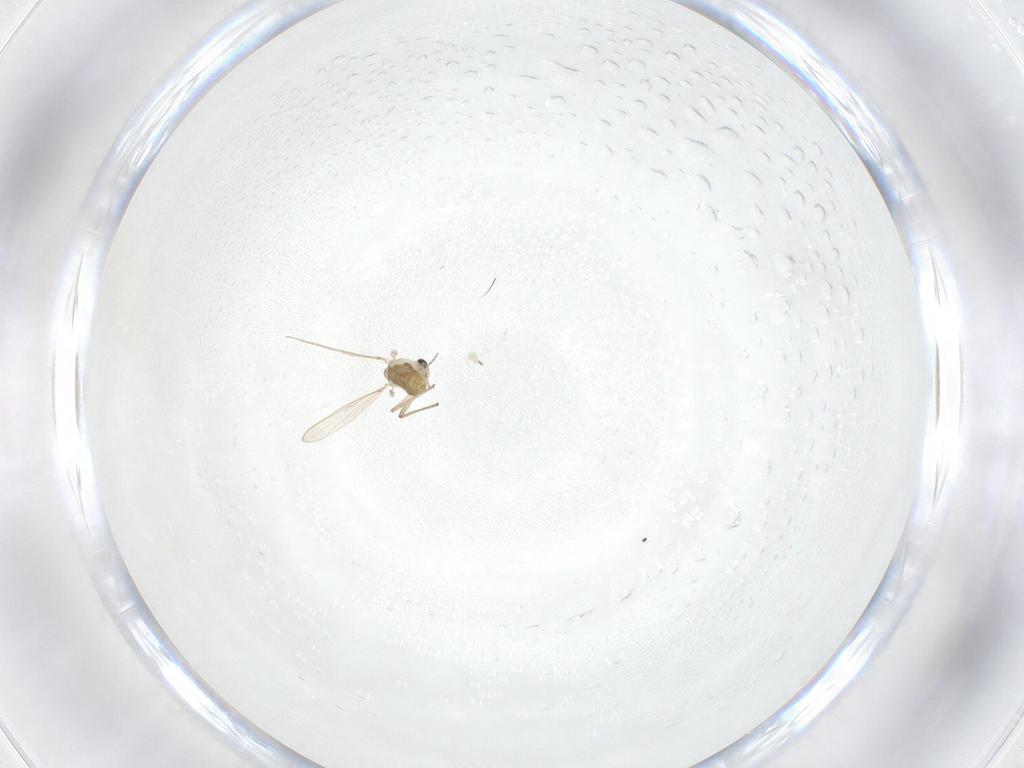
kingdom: Animalia
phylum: Arthropoda
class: Insecta
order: Diptera
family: Chironomidae
